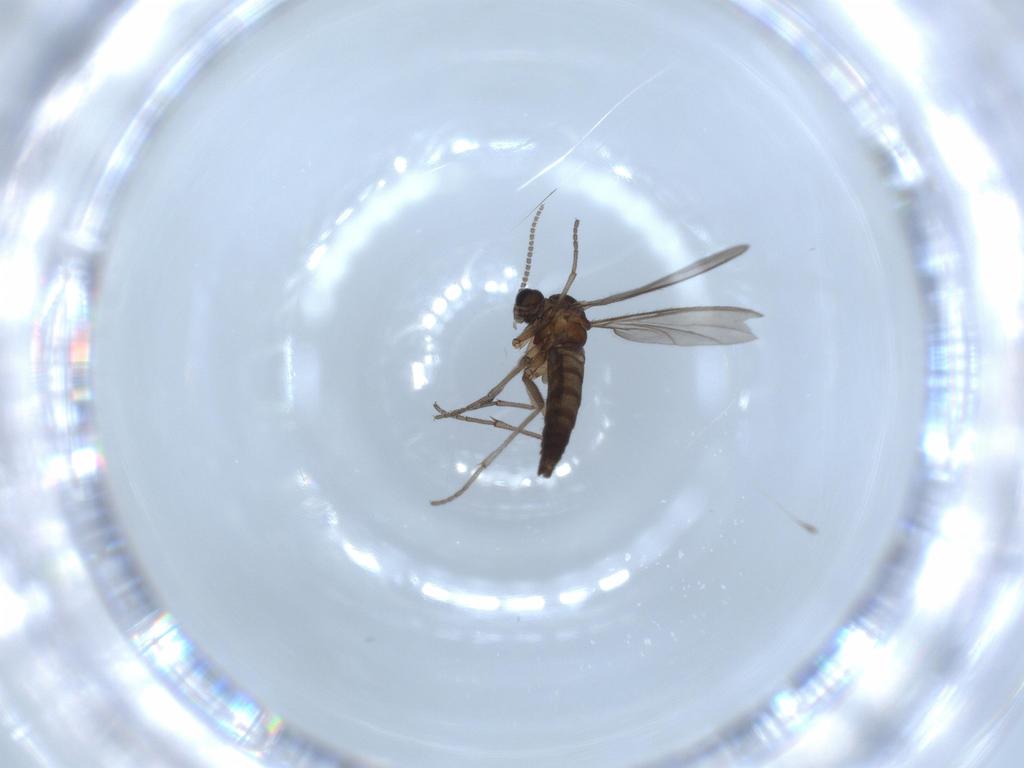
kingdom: Animalia
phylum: Arthropoda
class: Insecta
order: Diptera
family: Sciaridae
